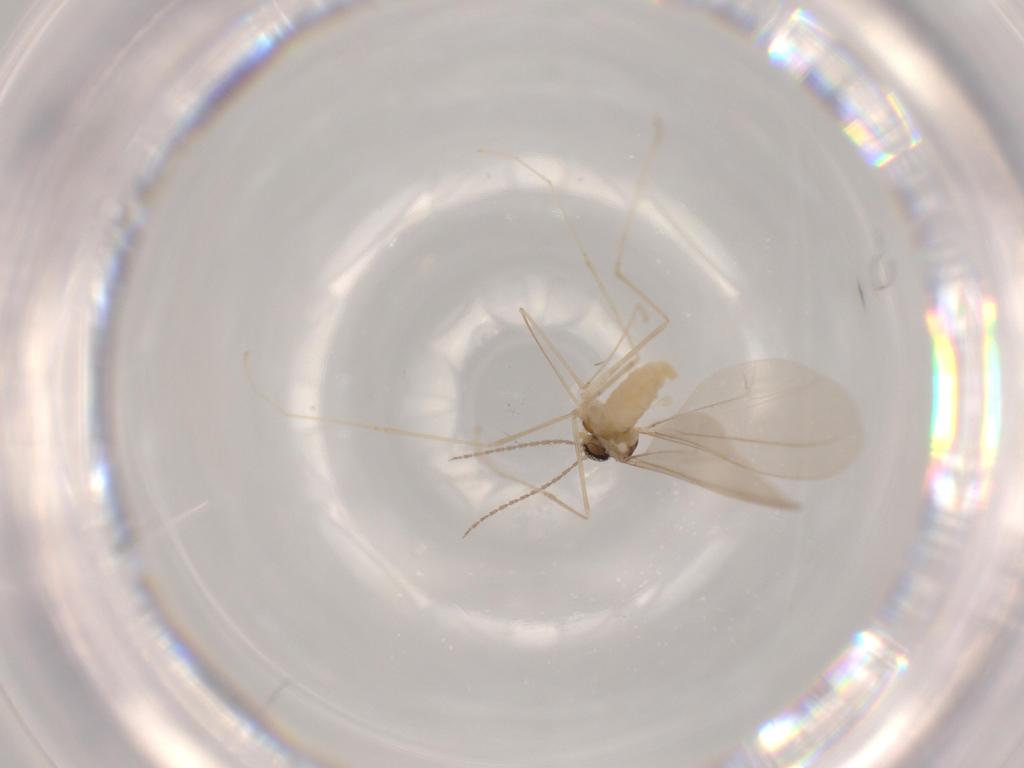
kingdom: Animalia
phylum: Arthropoda
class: Insecta
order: Diptera
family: Cecidomyiidae
